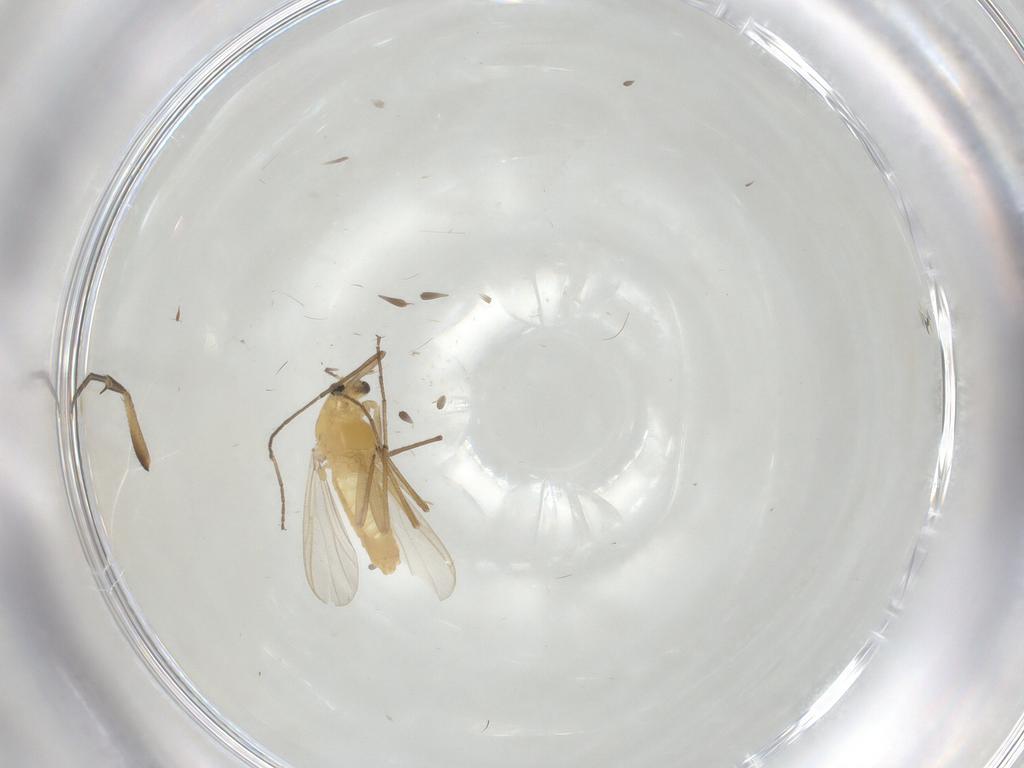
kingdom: Animalia
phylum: Arthropoda
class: Insecta
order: Diptera
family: Chironomidae
